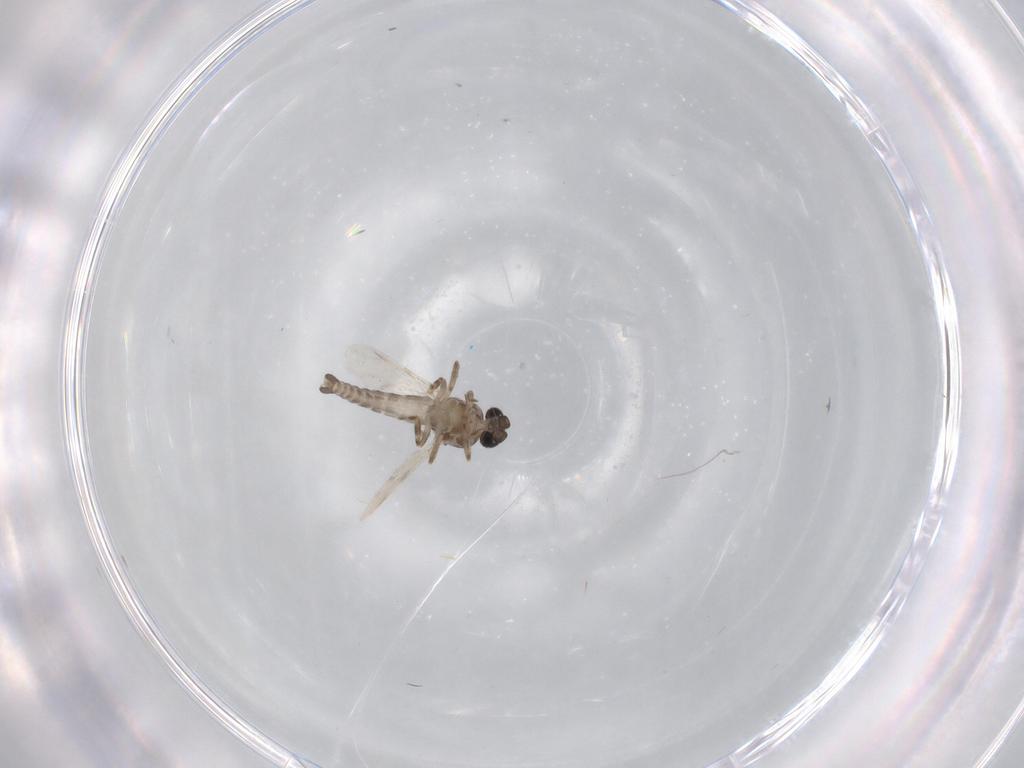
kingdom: Animalia
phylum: Arthropoda
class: Insecta
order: Diptera
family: Ceratopogonidae
